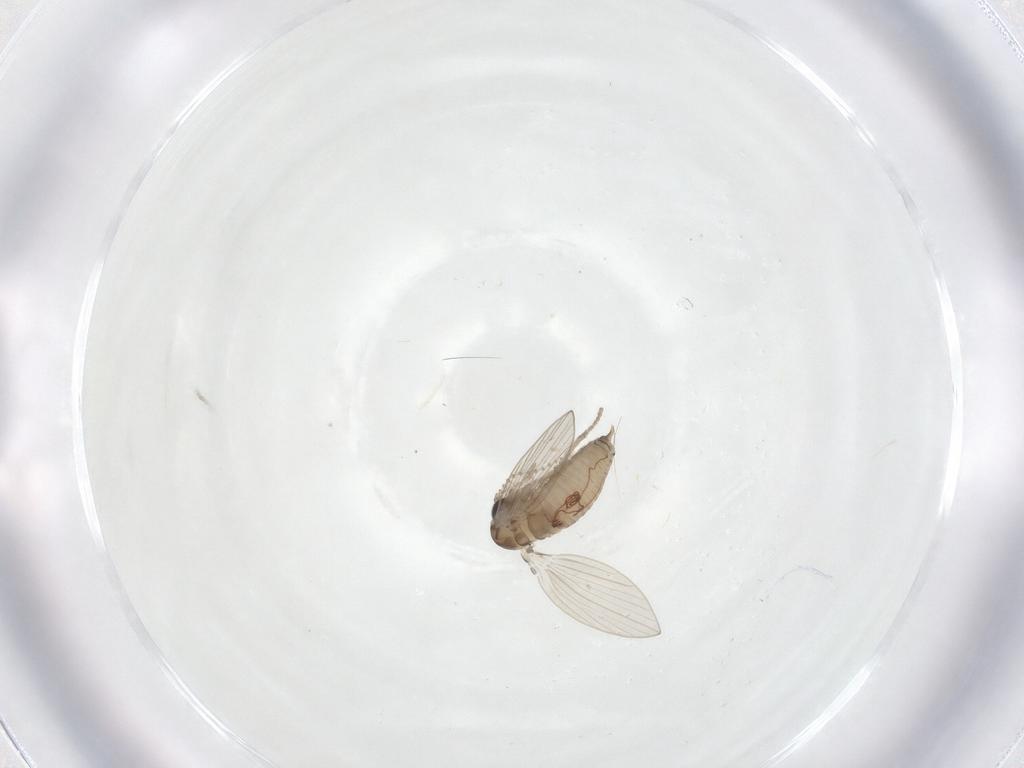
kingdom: Animalia
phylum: Arthropoda
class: Insecta
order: Diptera
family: Psychodidae
